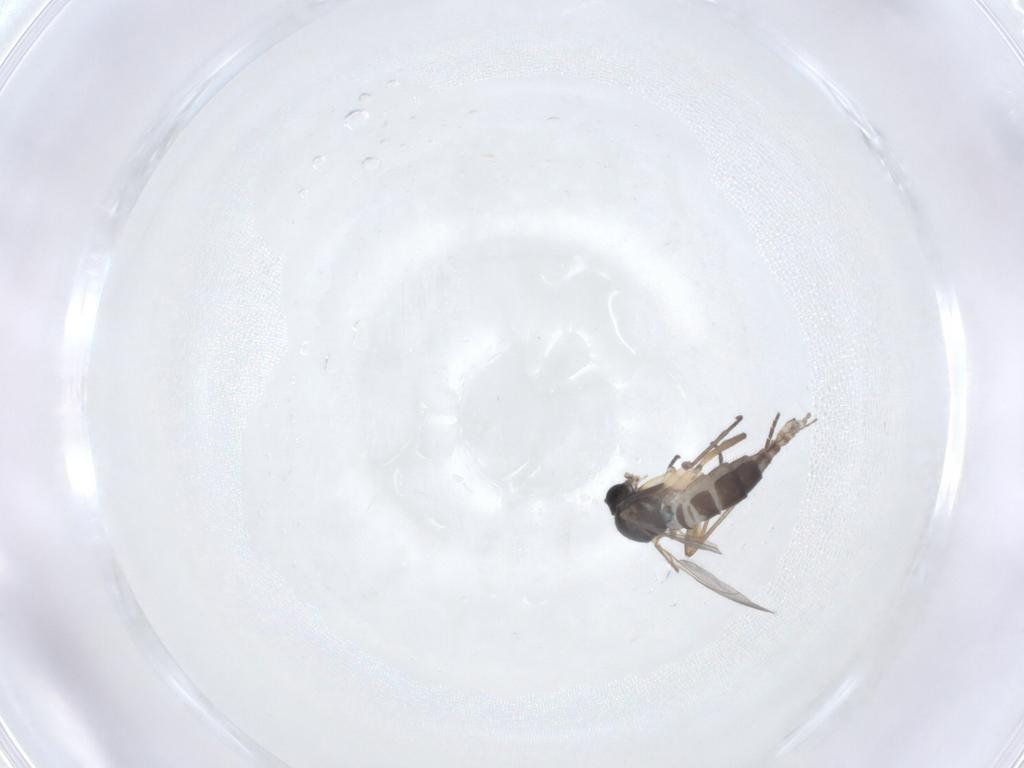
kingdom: Animalia
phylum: Arthropoda
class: Insecta
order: Diptera
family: Sciaridae
